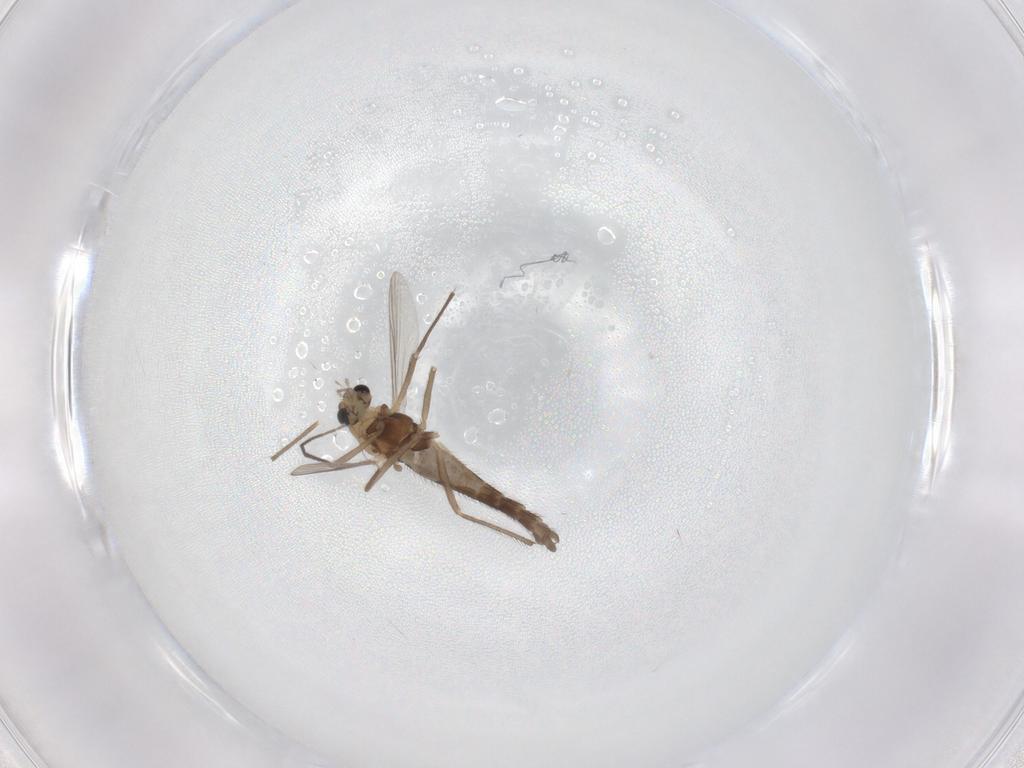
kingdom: Animalia
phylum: Arthropoda
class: Insecta
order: Diptera
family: Chironomidae
